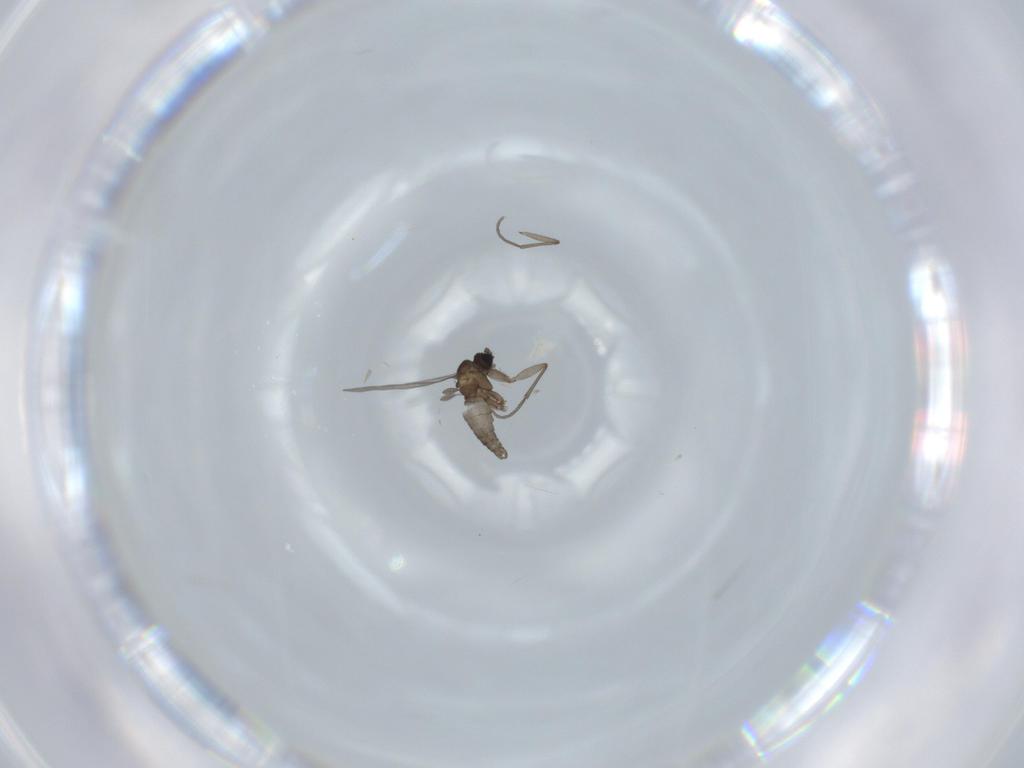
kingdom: Animalia
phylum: Arthropoda
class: Insecta
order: Diptera
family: Sciaridae
